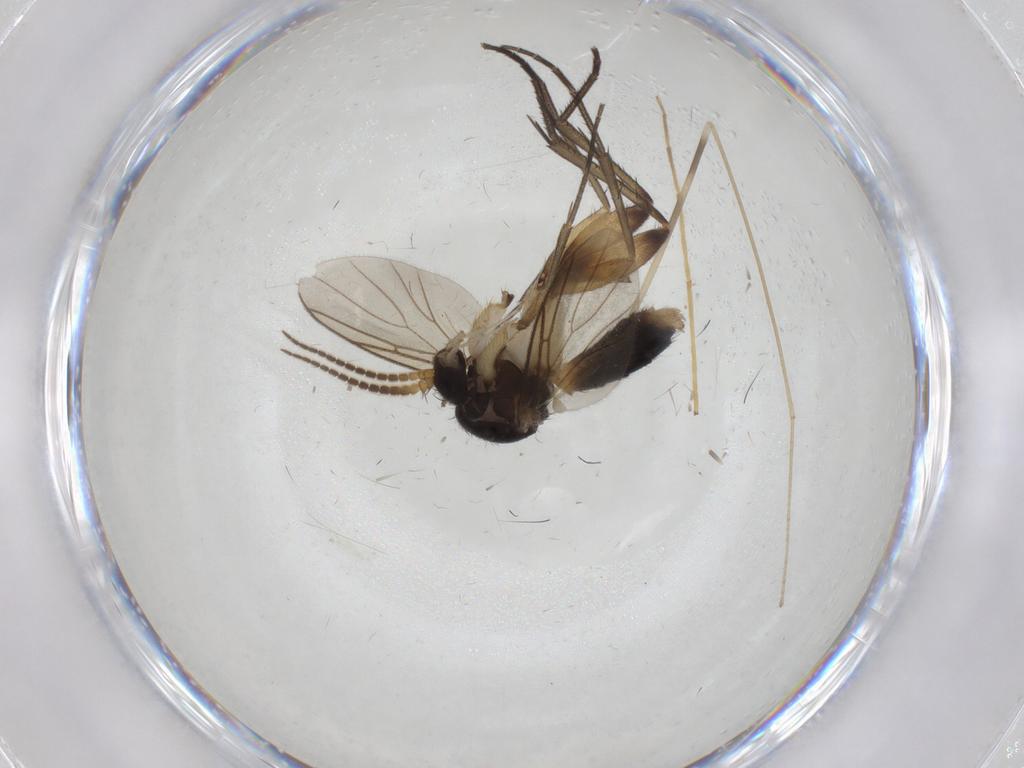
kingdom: Animalia
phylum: Arthropoda
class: Insecta
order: Diptera
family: Mycetophilidae
